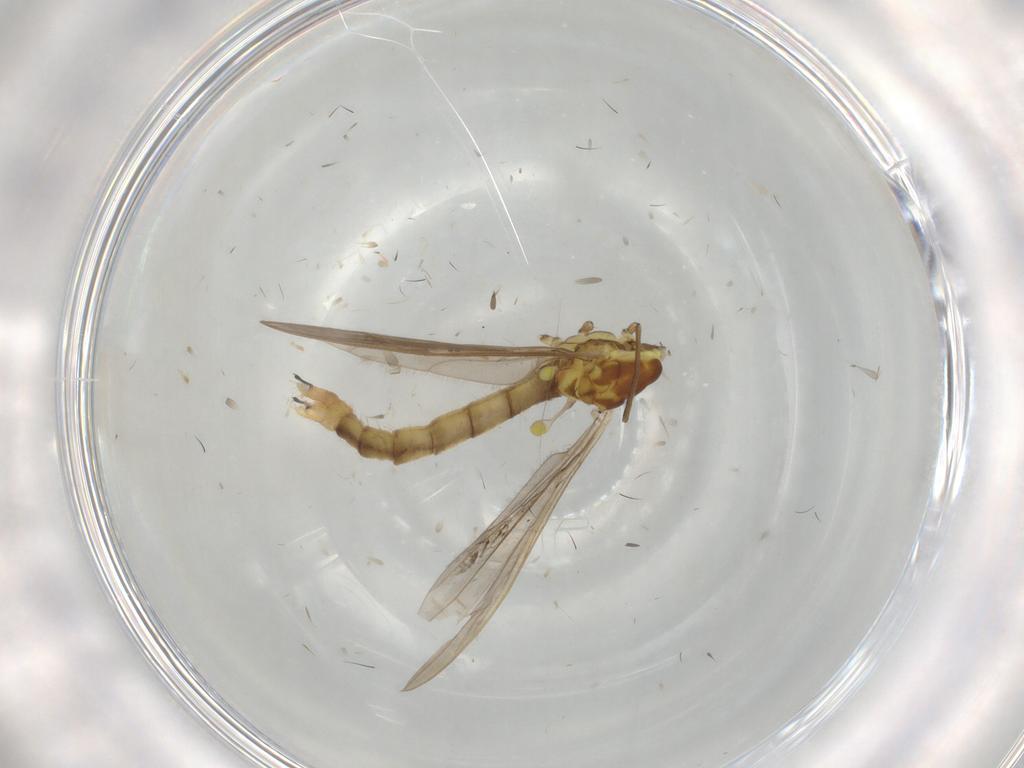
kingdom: Animalia
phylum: Arthropoda
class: Insecta
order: Diptera
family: Limoniidae
